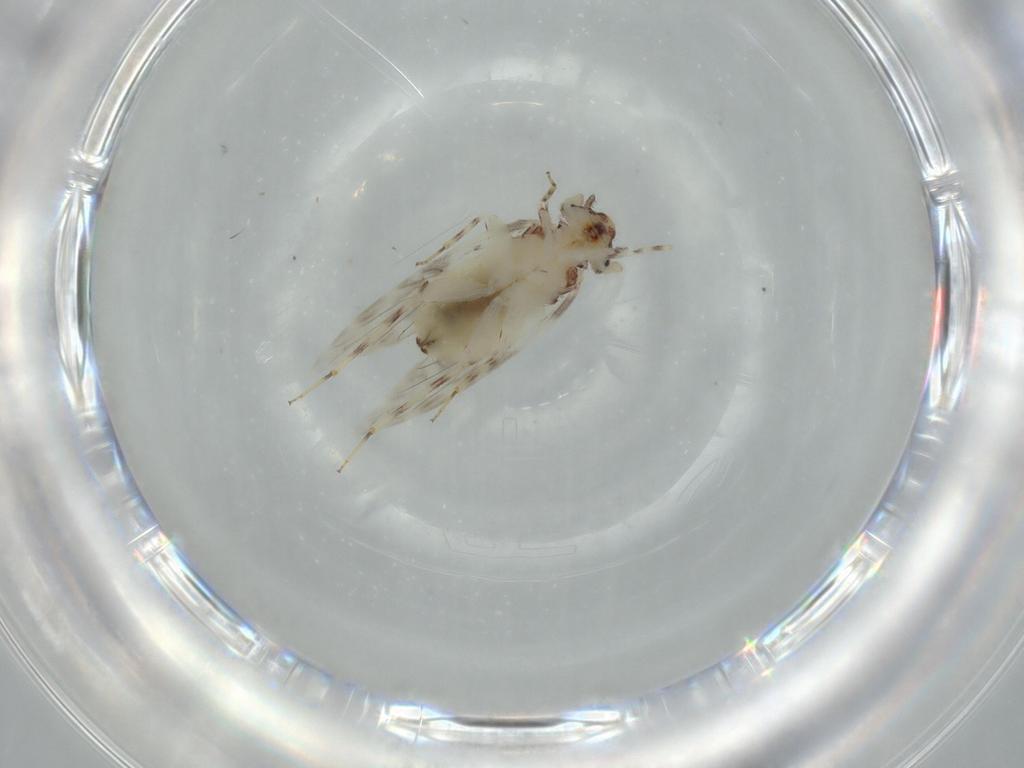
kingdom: Animalia
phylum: Arthropoda
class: Insecta
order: Psocodea
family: Lepidopsocidae
